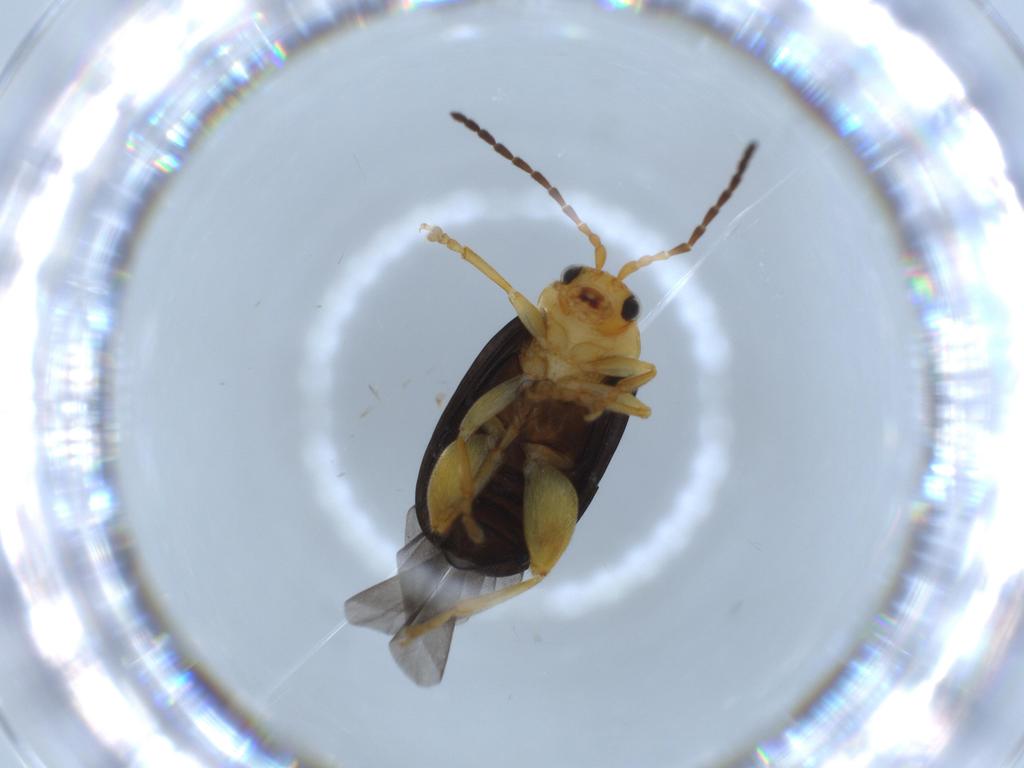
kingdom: Animalia
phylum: Arthropoda
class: Insecta
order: Coleoptera
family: Chrysomelidae
